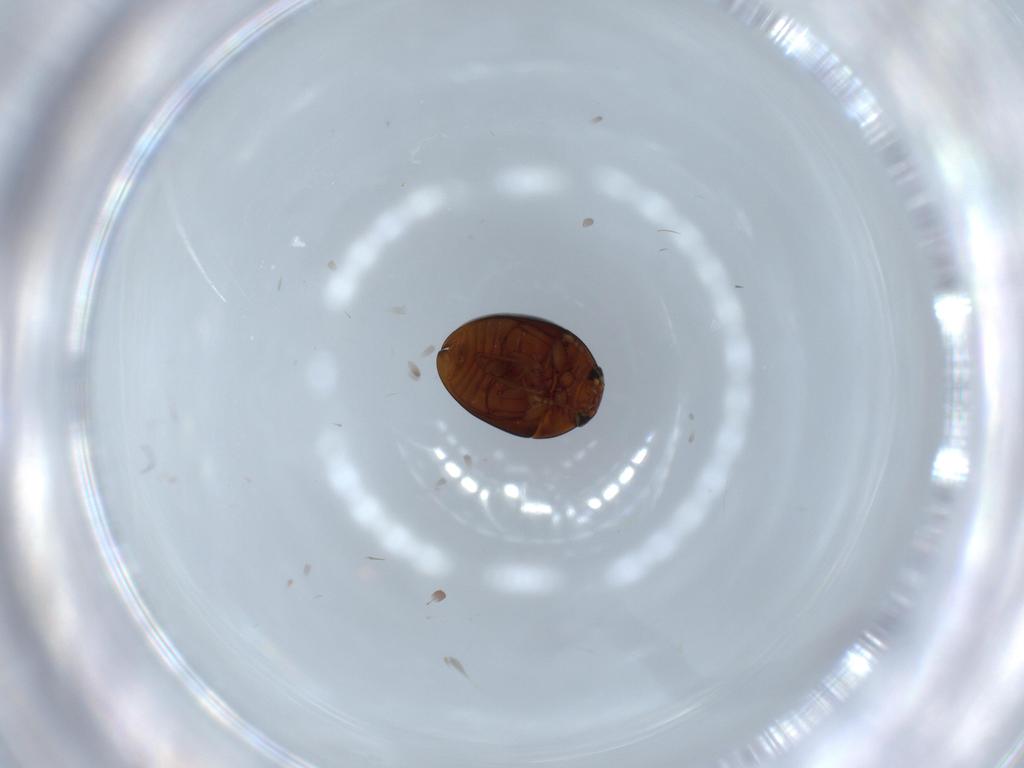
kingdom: Animalia
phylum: Arthropoda
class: Insecta
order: Coleoptera
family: Phalacridae
